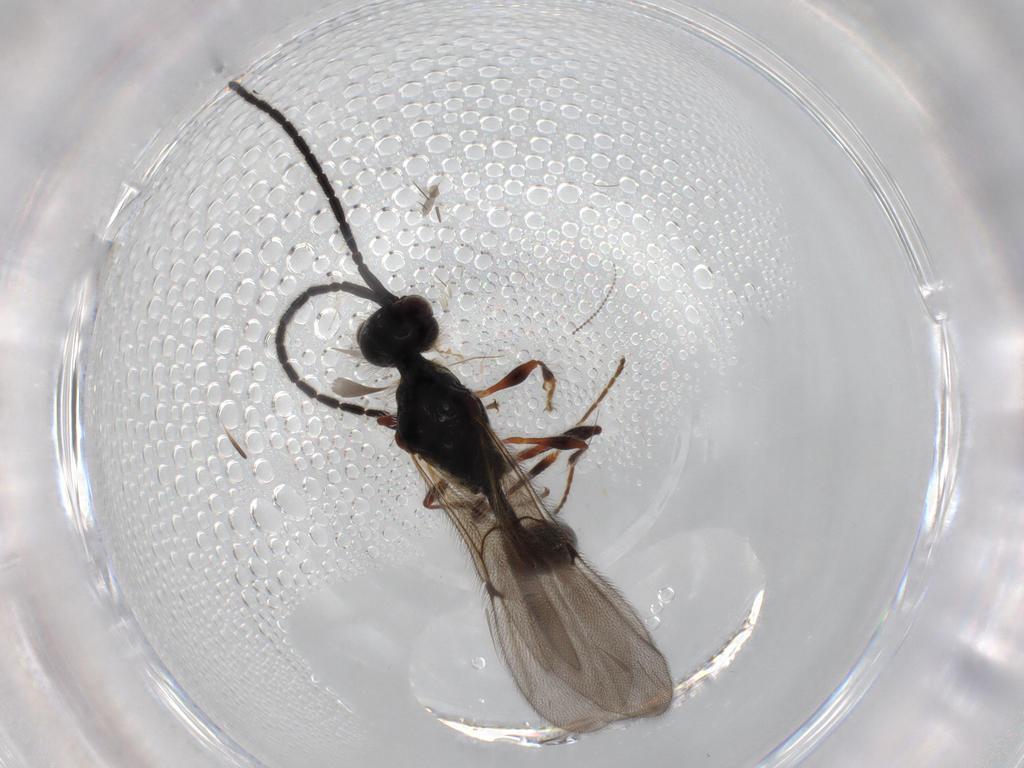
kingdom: Animalia
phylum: Arthropoda
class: Insecta
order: Hymenoptera
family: Diapriidae
